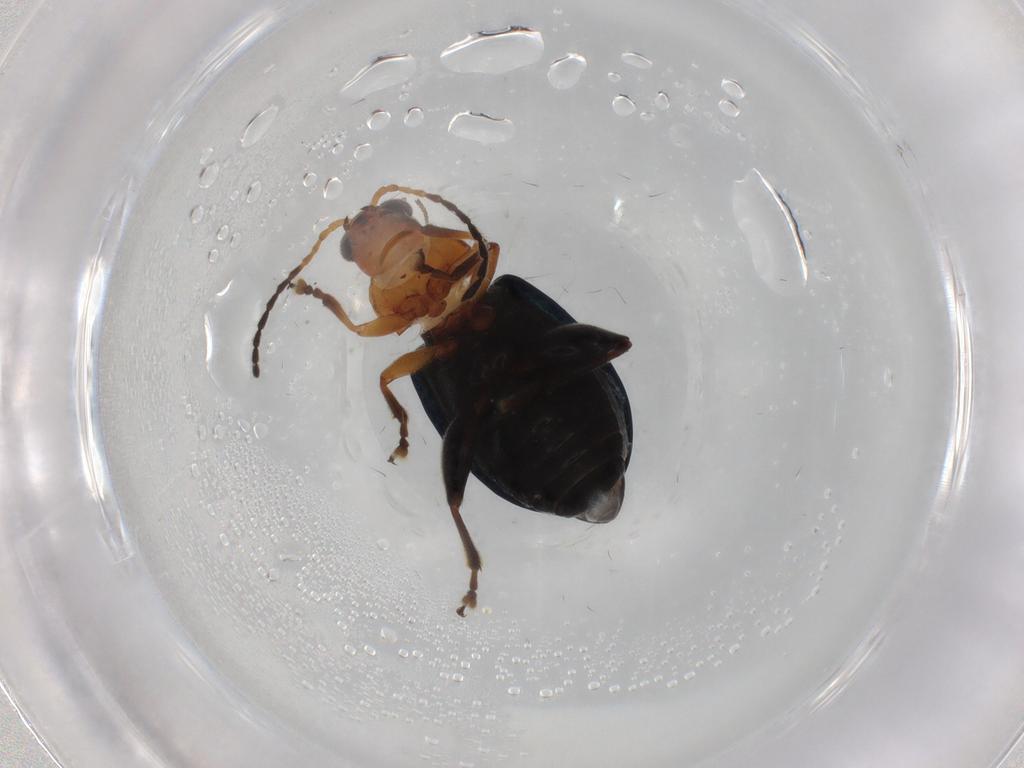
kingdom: Animalia
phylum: Arthropoda
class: Insecta
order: Coleoptera
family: Chrysomelidae
